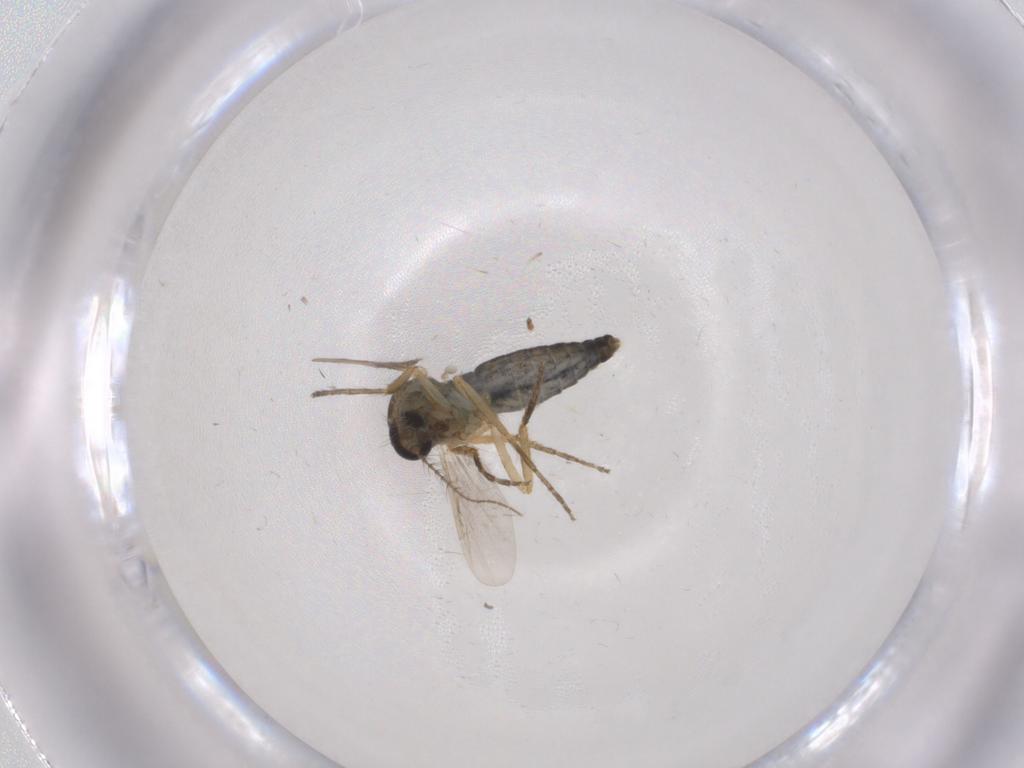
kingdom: Animalia
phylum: Arthropoda
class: Insecta
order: Diptera
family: Ceratopogonidae
